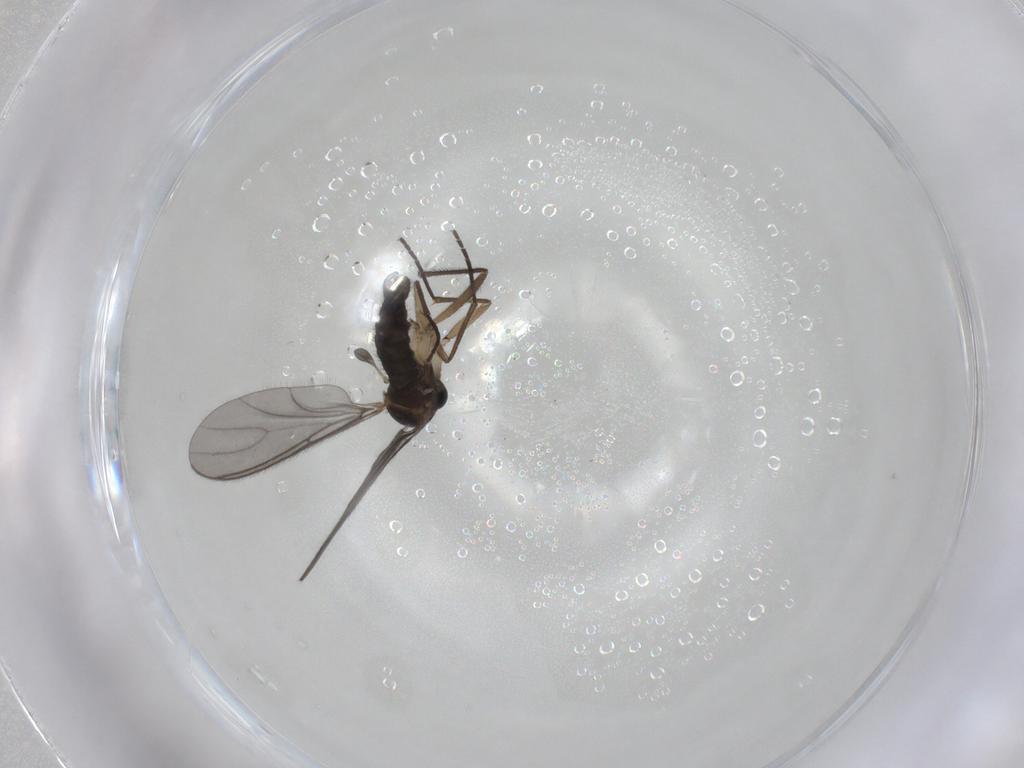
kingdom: Animalia
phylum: Arthropoda
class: Insecta
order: Diptera
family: Sciaridae
